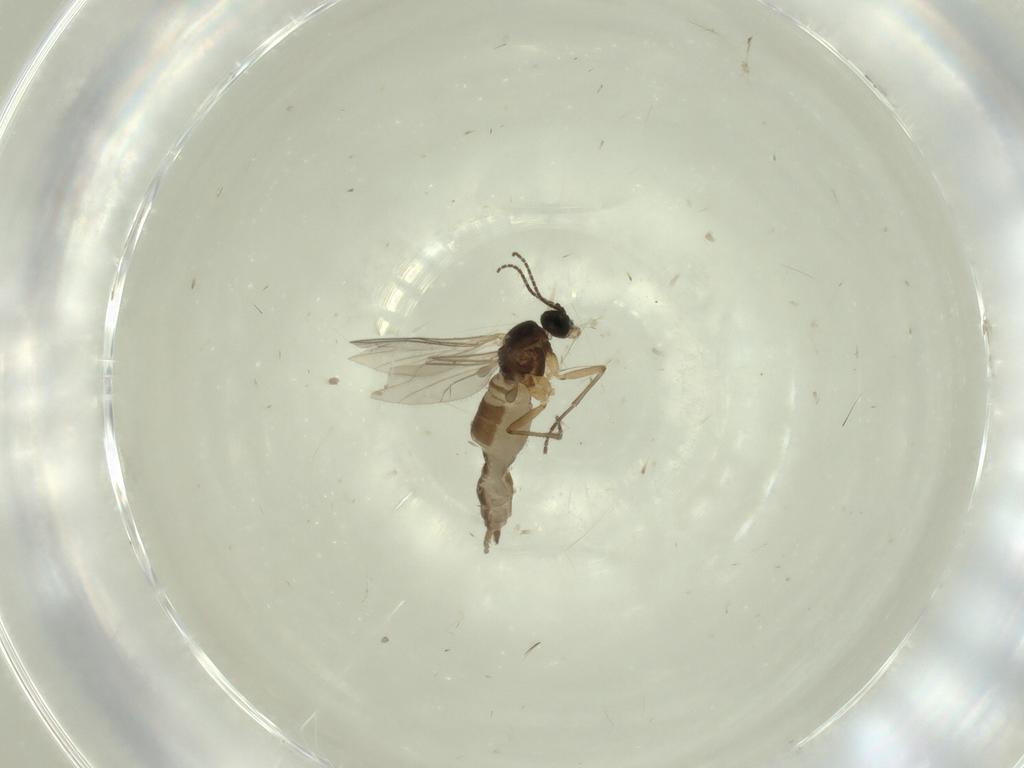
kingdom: Animalia
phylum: Arthropoda
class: Insecta
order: Diptera
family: Mycetophilidae
